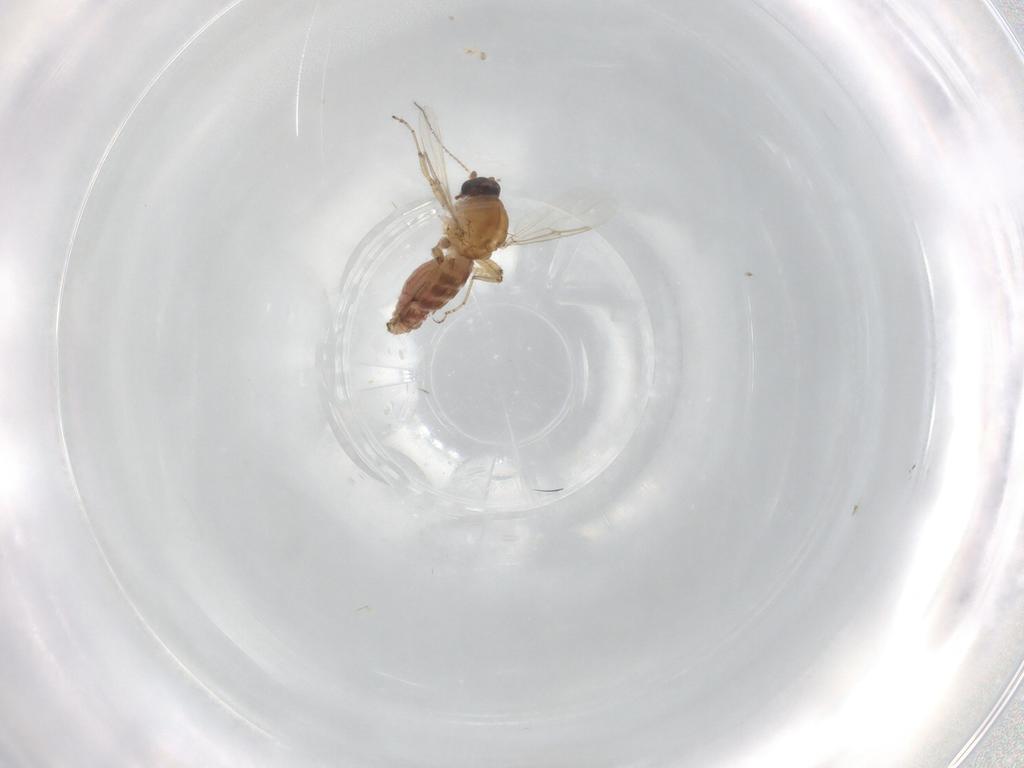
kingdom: Animalia
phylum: Arthropoda
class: Insecta
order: Diptera
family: Ceratopogonidae
